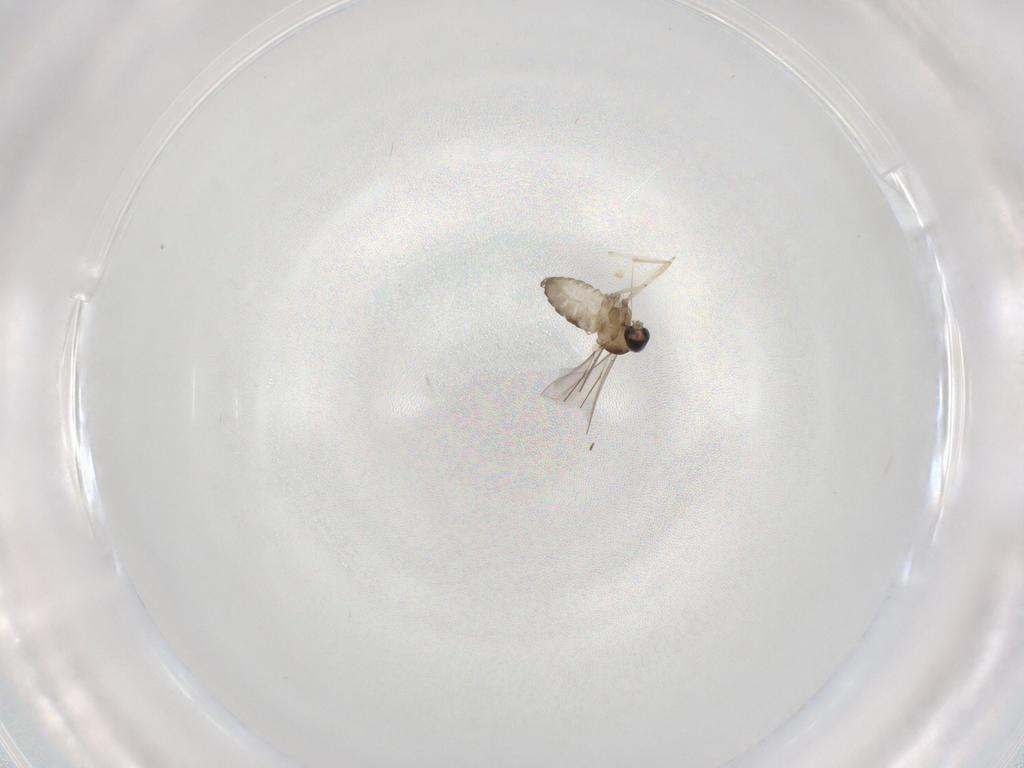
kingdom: Animalia
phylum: Arthropoda
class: Insecta
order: Diptera
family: Cecidomyiidae
